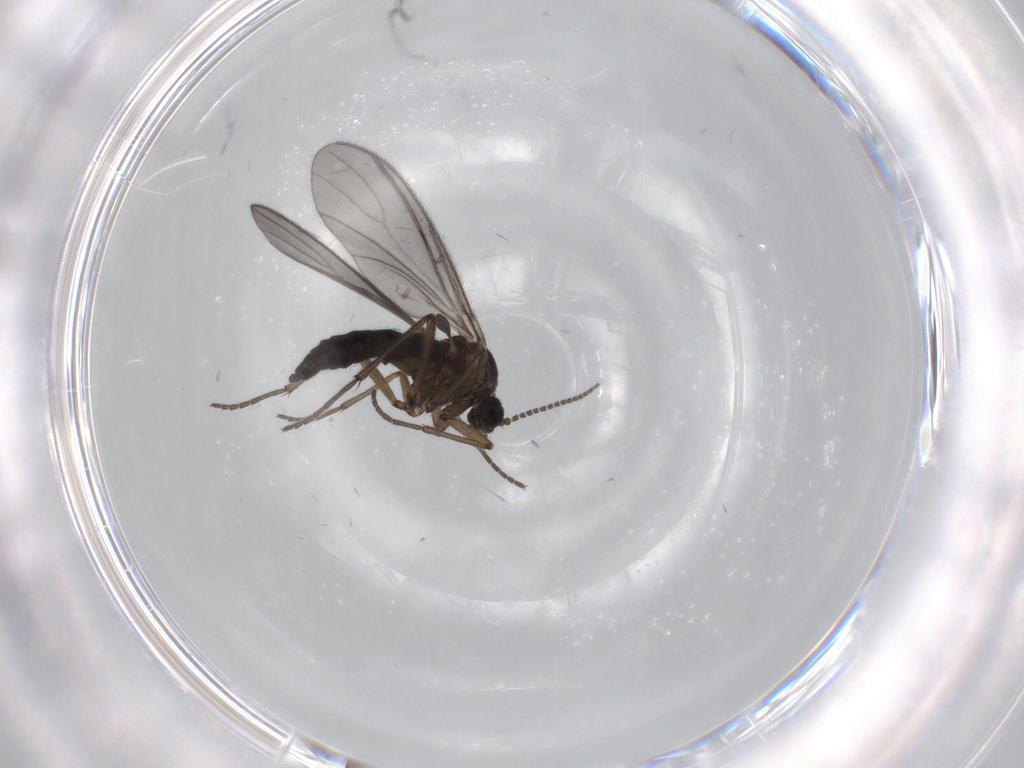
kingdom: Animalia
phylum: Arthropoda
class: Insecta
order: Diptera
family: Sciaridae
